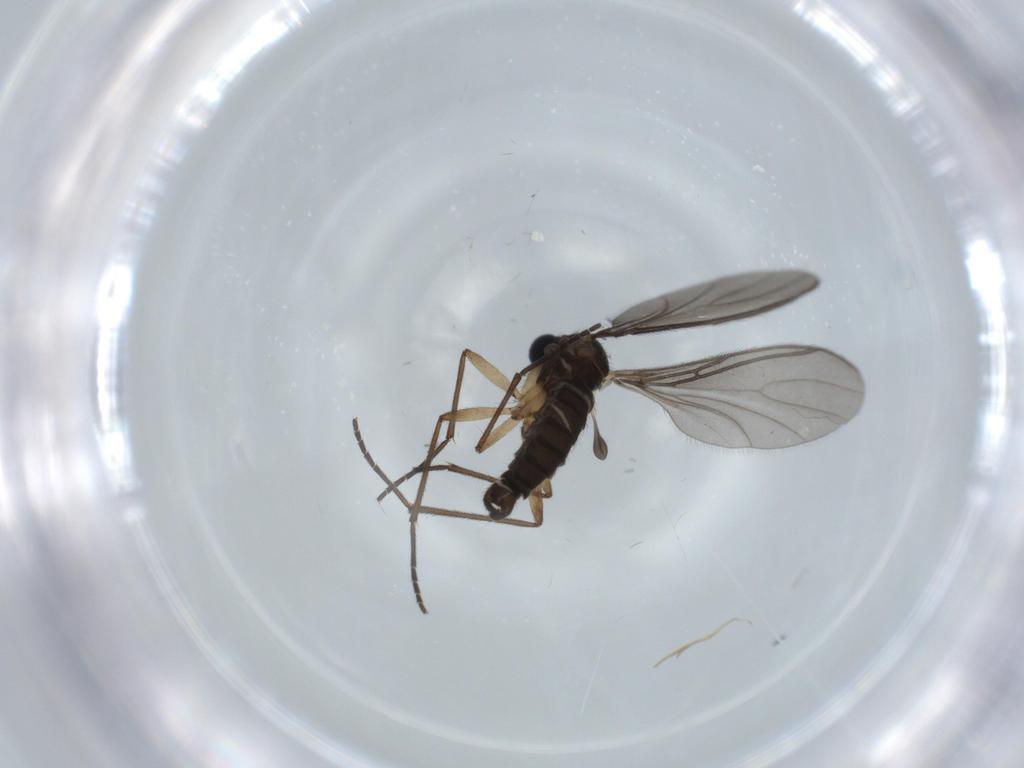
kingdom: Animalia
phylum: Arthropoda
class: Insecta
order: Diptera
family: Sciaridae
